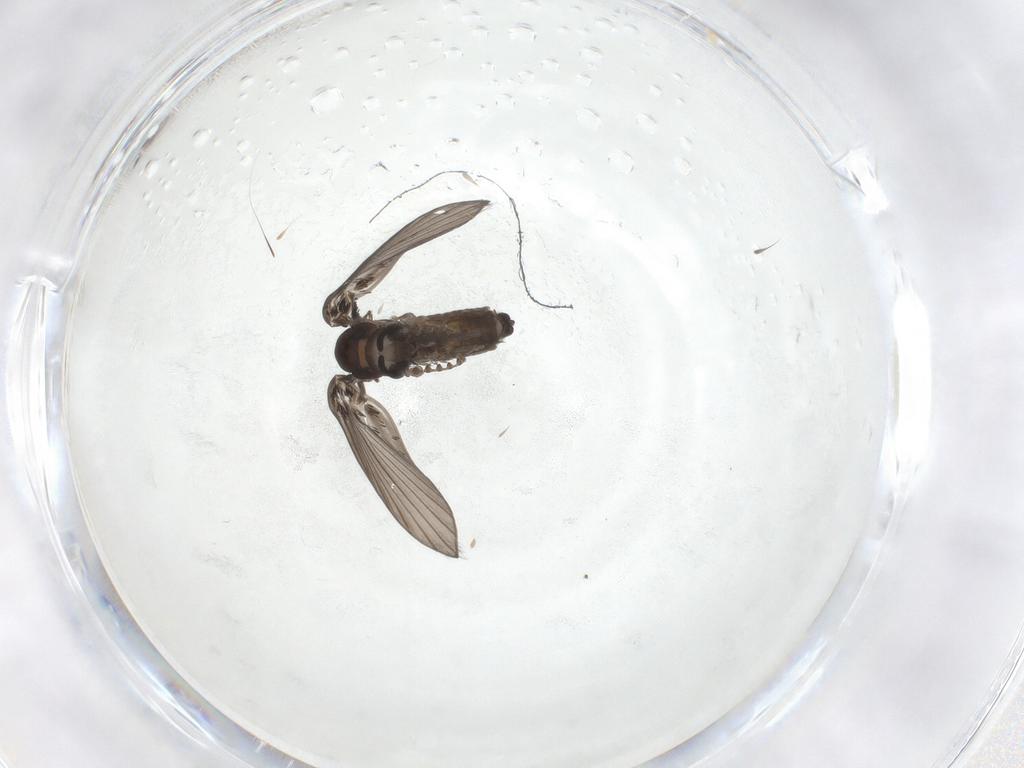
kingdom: Animalia
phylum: Arthropoda
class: Insecta
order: Diptera
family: Psychodidae
